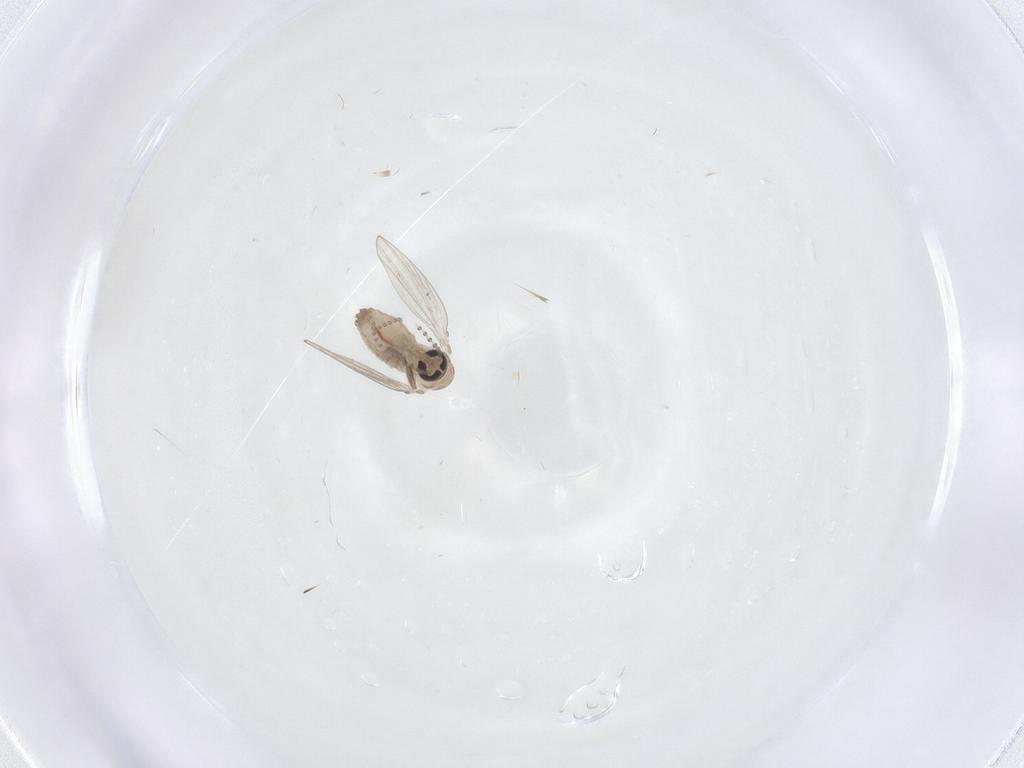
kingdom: Animalia
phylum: Arthropoda
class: Insecta
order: Diptera
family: Psychodidae
